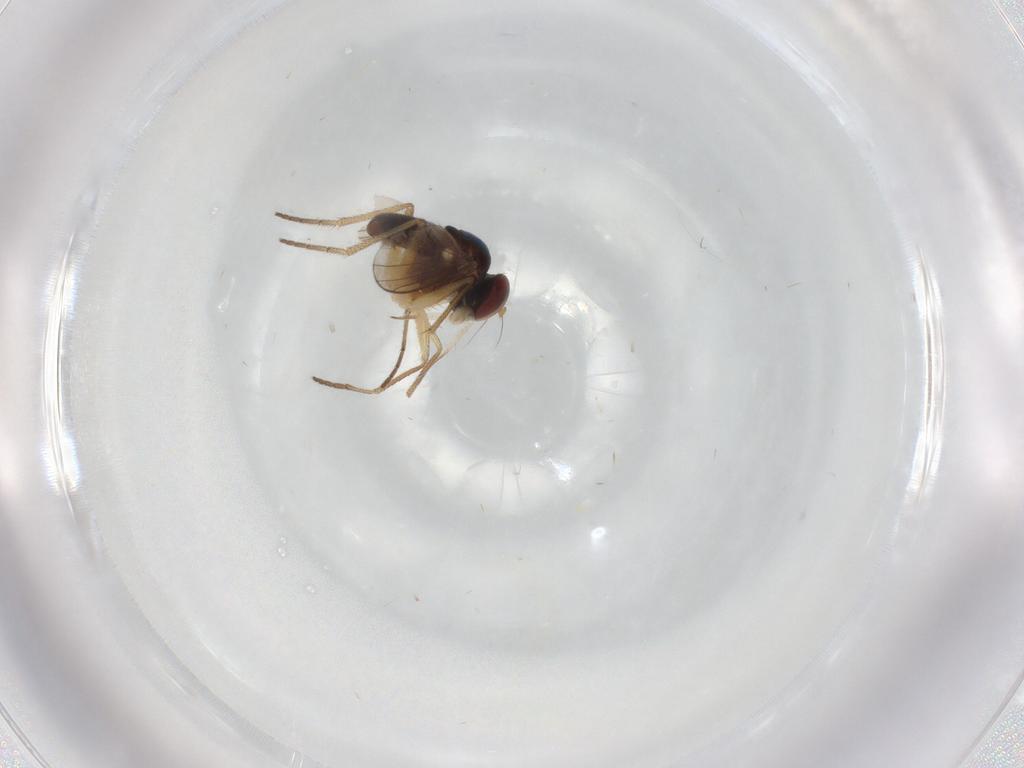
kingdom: Animalia
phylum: Arthropoda
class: Insecta
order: Diptera
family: Dolichopodidae
